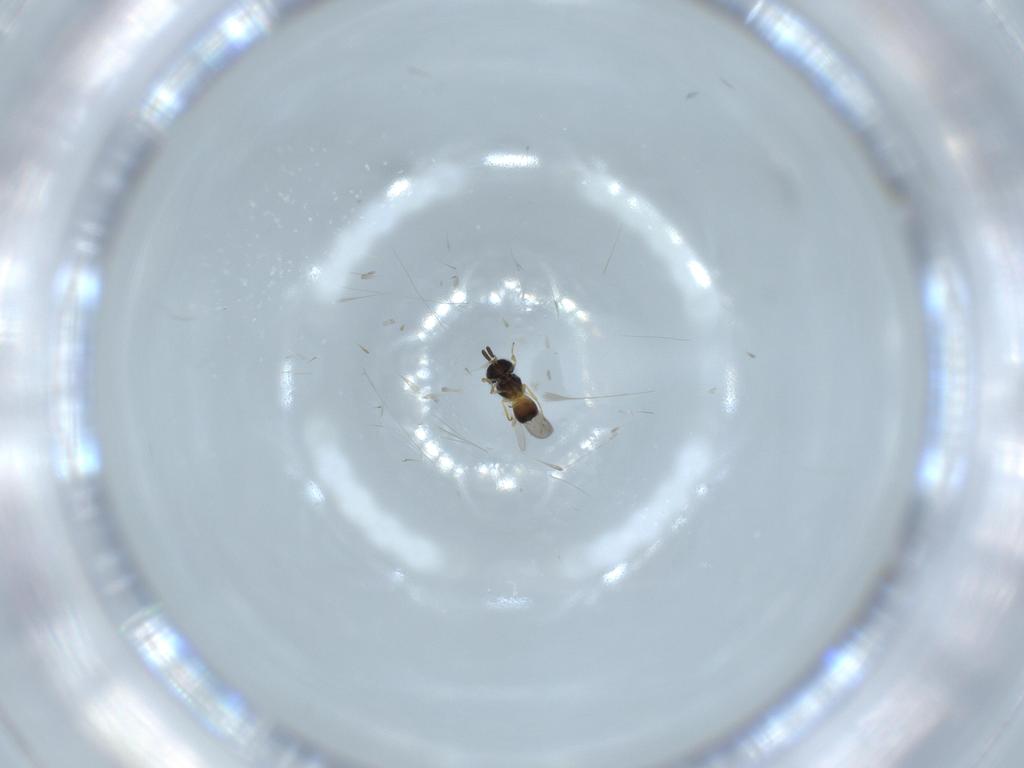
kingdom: Animalia
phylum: Arthropoda
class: Insecta
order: Hymenoptera
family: Scelionidae
